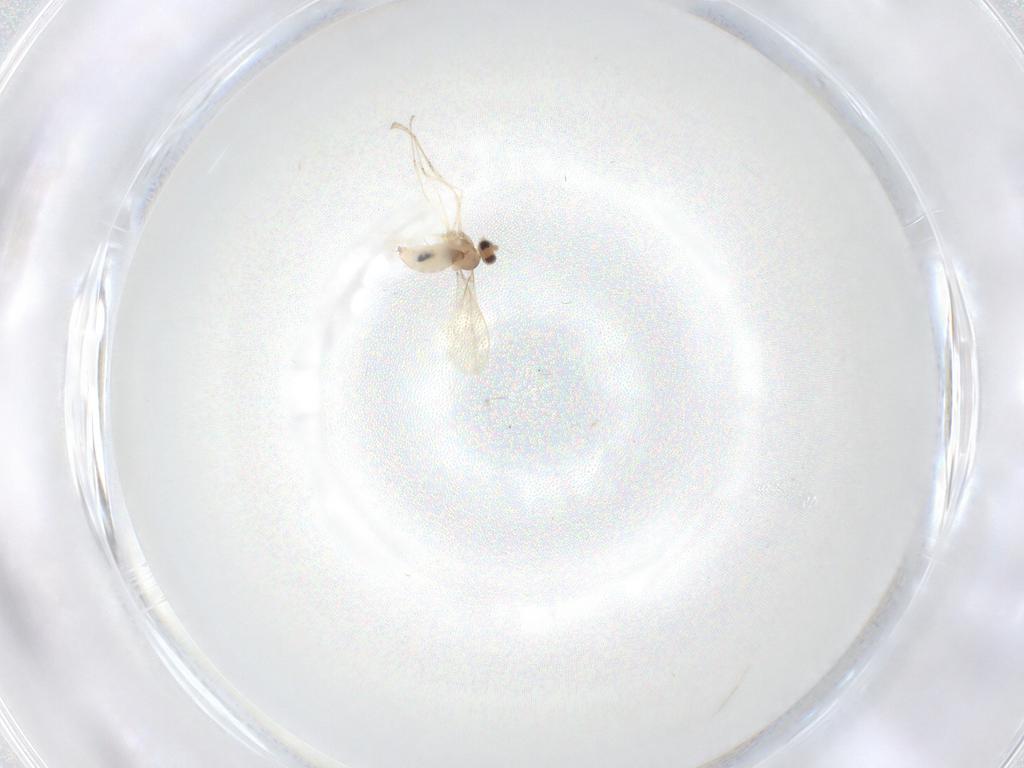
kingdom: Animalia
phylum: Arthropoda
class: Insecta
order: Diptera
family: Cecidomyiidae
